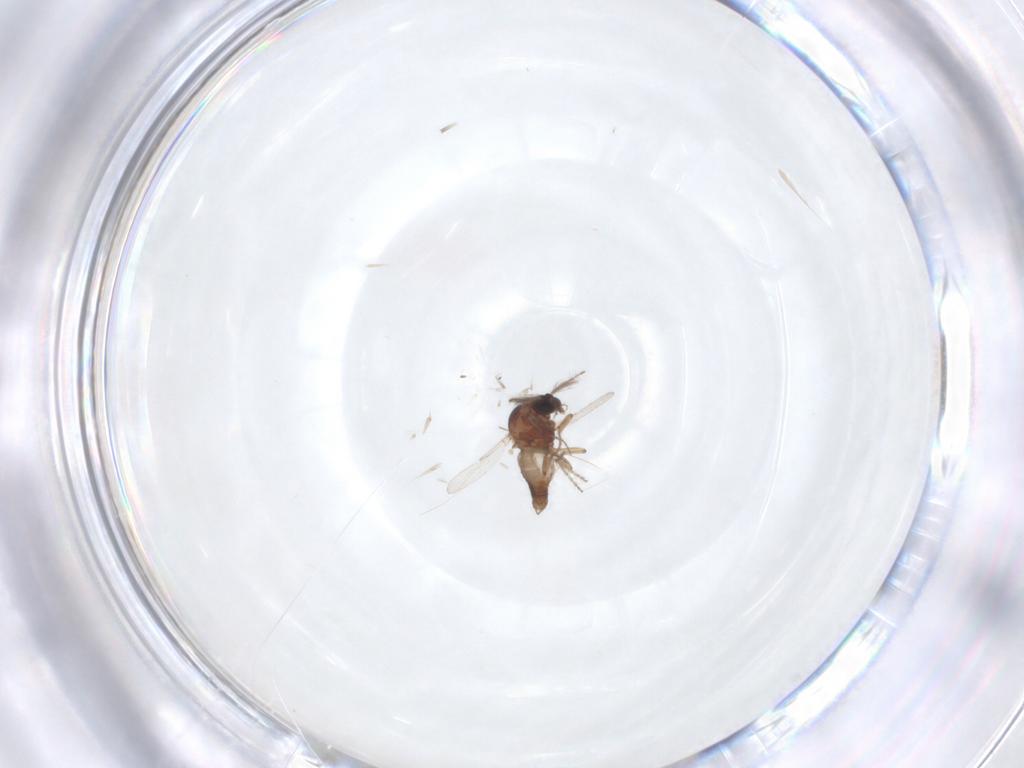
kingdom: Animalia
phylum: Arthropoda
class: Insecta
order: Diptera
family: Ceratopogonidae
